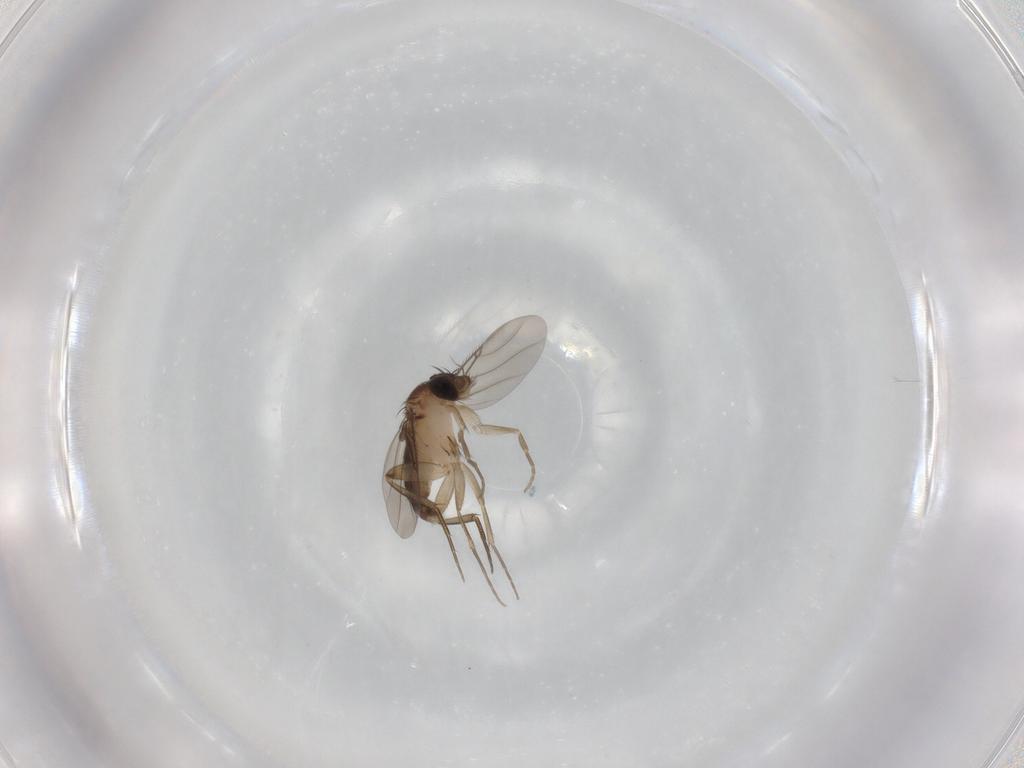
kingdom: Animalia
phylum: Arthropoda
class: Insecta
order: Diptera
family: Phoridae
